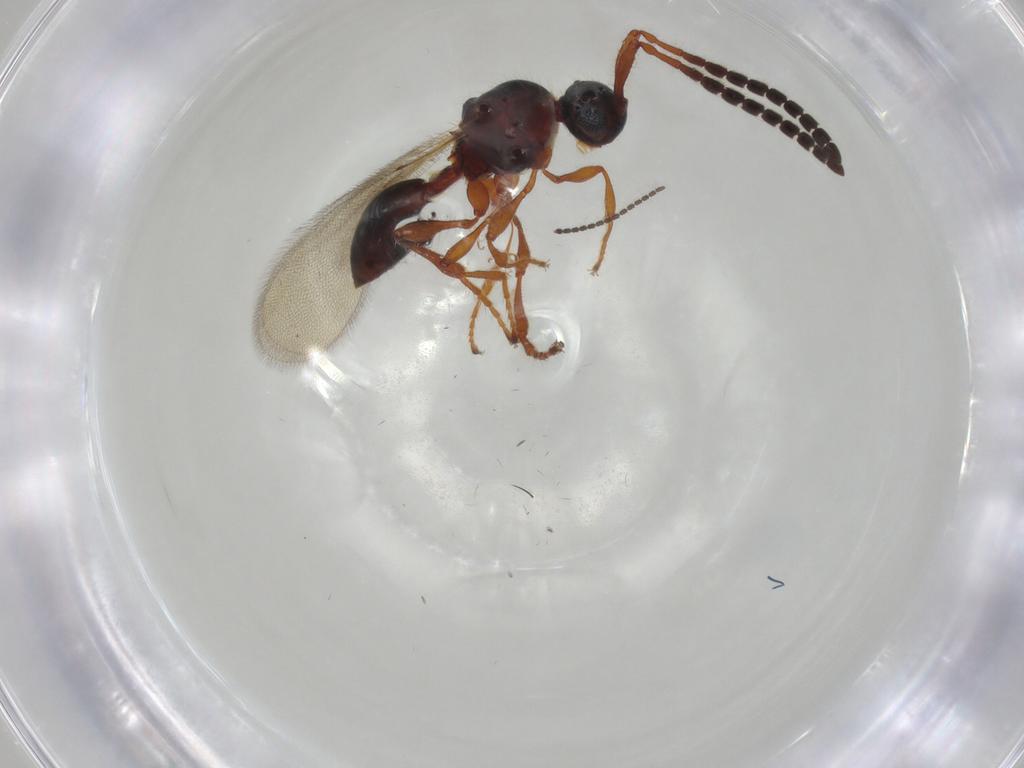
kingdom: Animalia
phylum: Arthropoda
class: Insecta
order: Hymenoptera
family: Diapriidae
